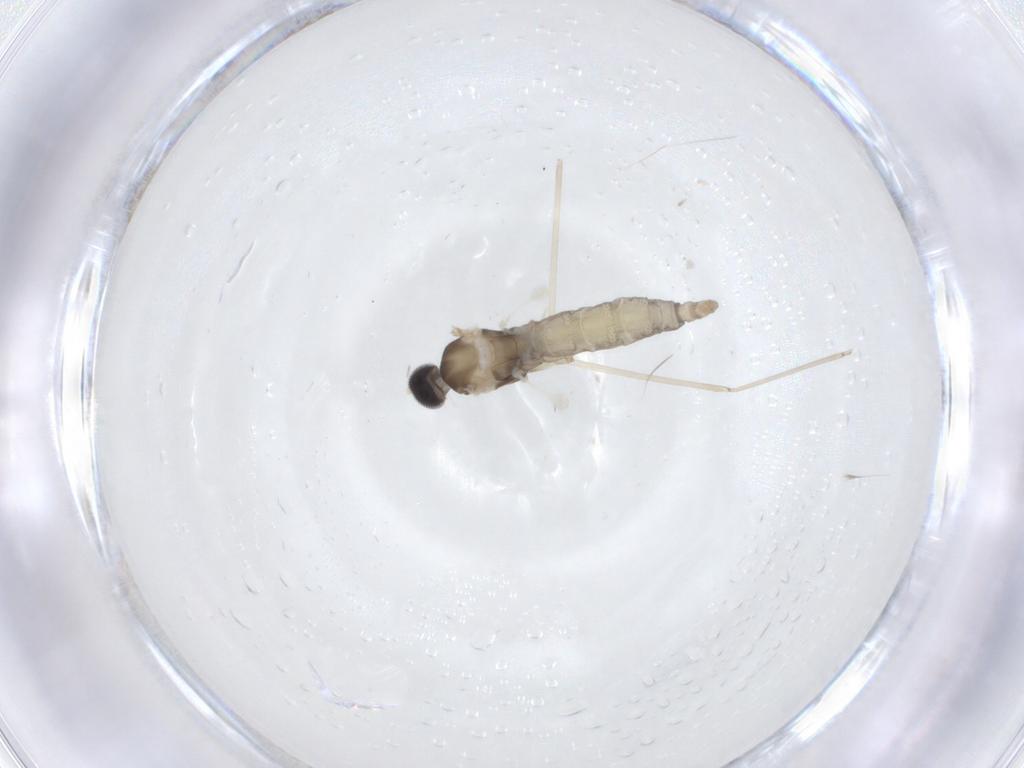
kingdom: Animalia
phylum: Arthropoda
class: Insecta
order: Diptera
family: Cecidomyiidae
